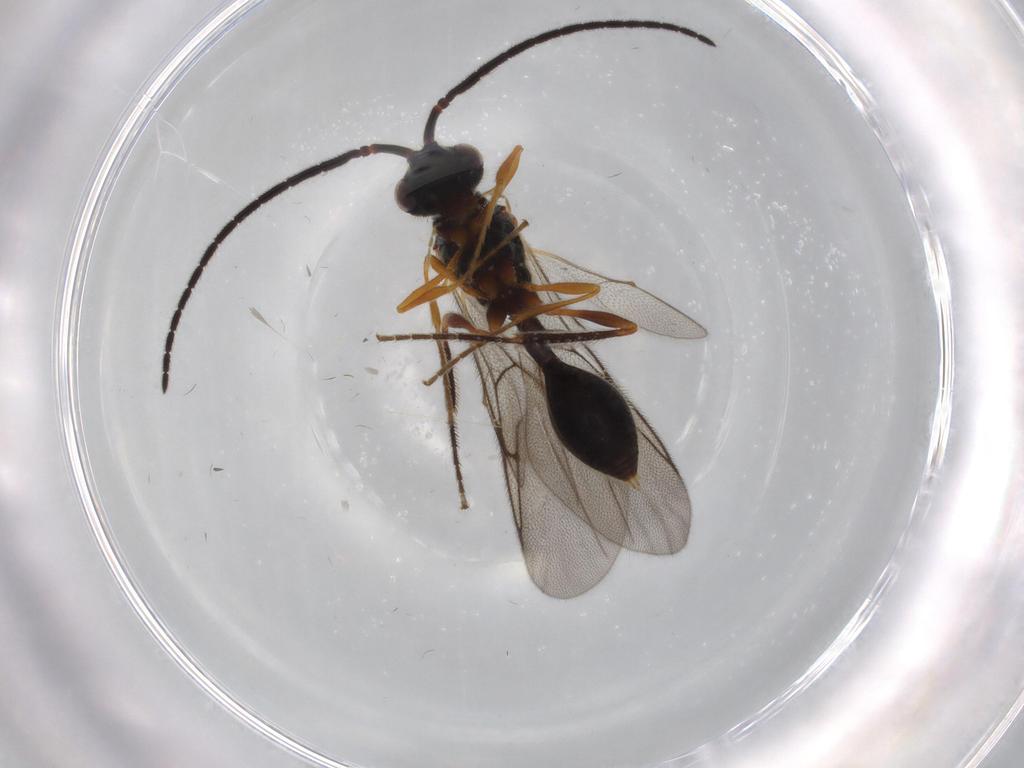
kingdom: Animalia
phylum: Arthropoda
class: Insecta
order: Hymenoptera
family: Diapriidae
